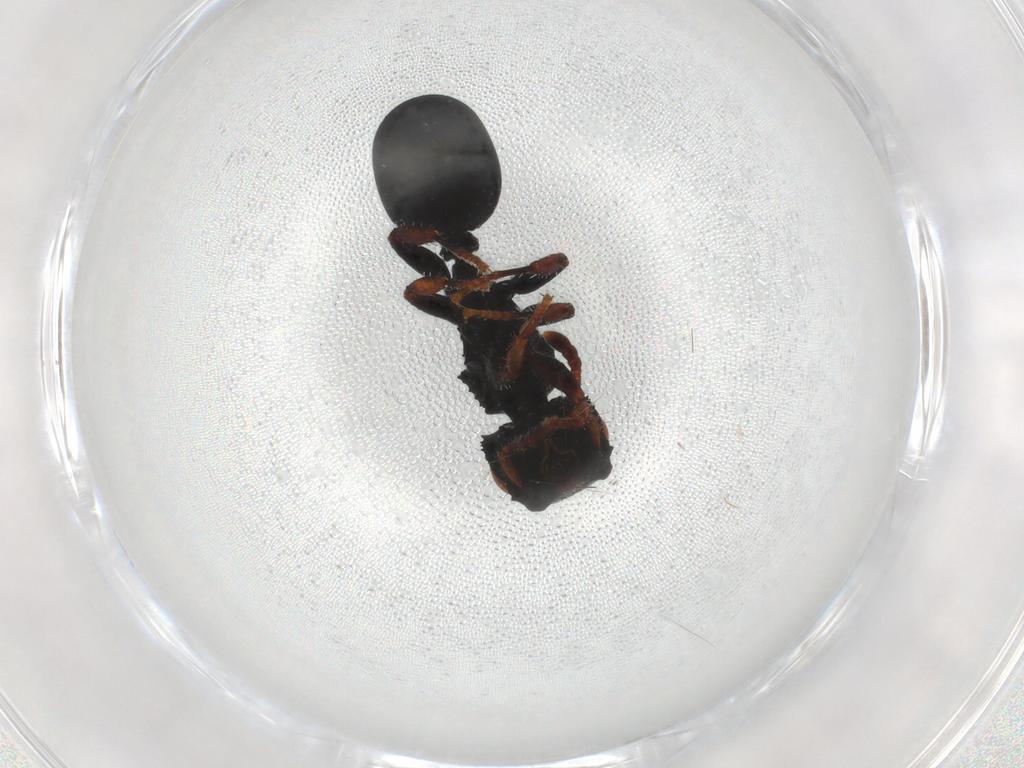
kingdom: Animalia
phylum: Arthropoda
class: Insecta
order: Hymenoptera
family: Formicidae
